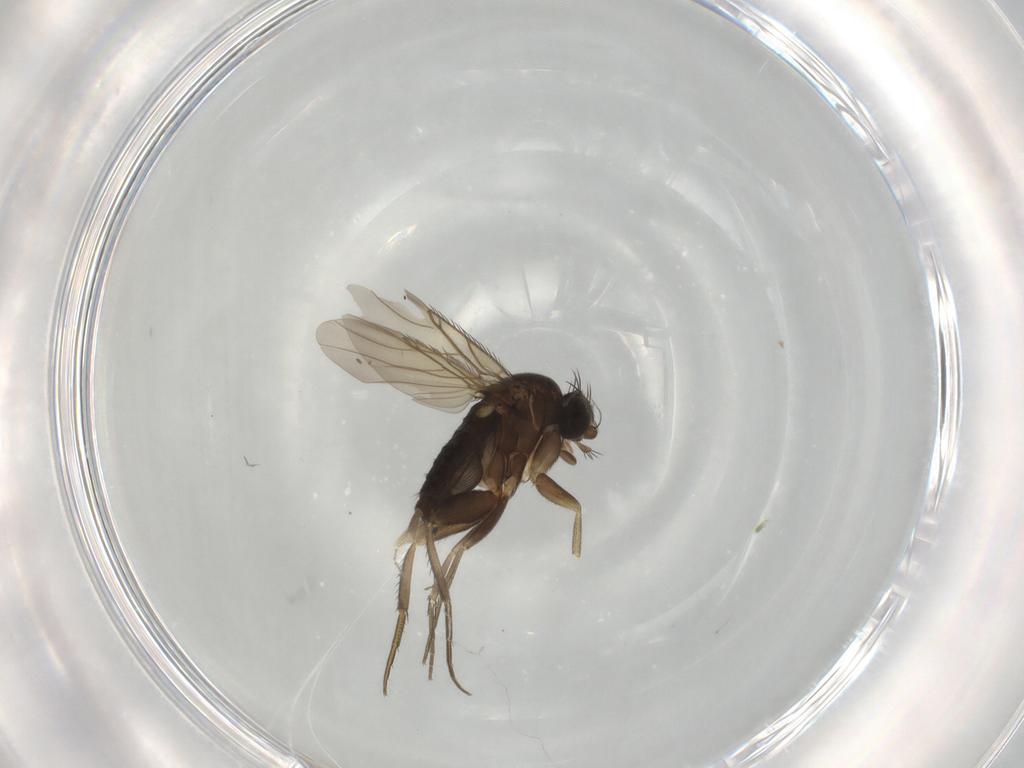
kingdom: Animalia
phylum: Arthropoda
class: Insecta
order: Diptera
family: Phoridae
